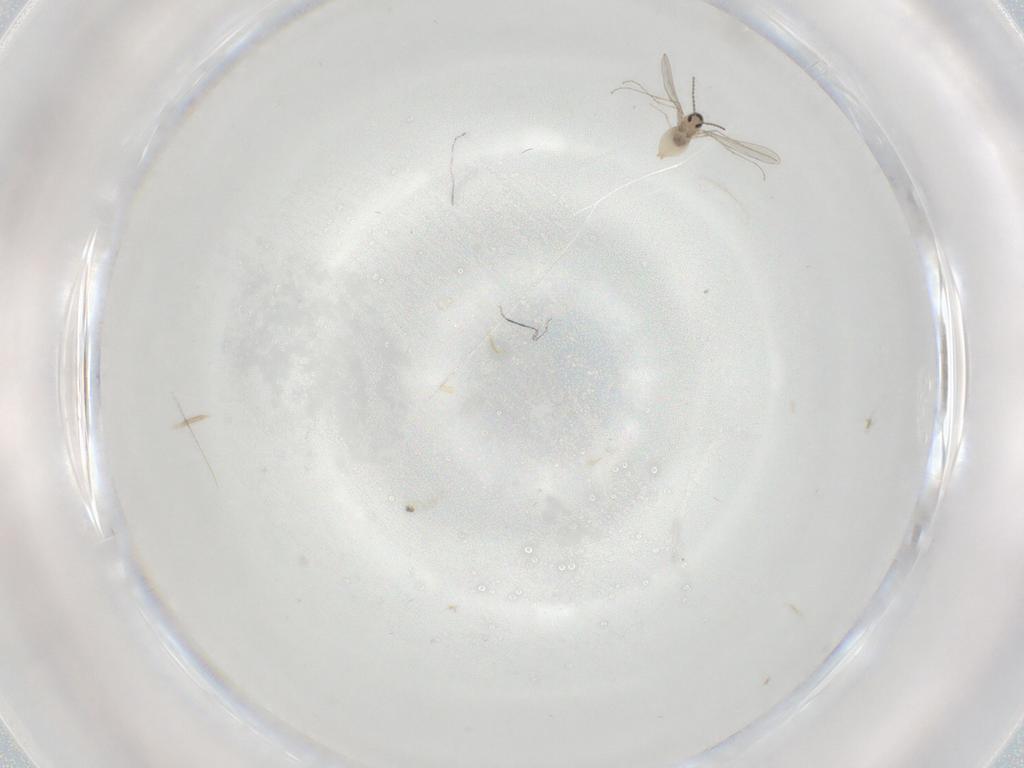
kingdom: Animalia
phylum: Arthropoda
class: Insecta
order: Diptera
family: Cecidomyiidae
